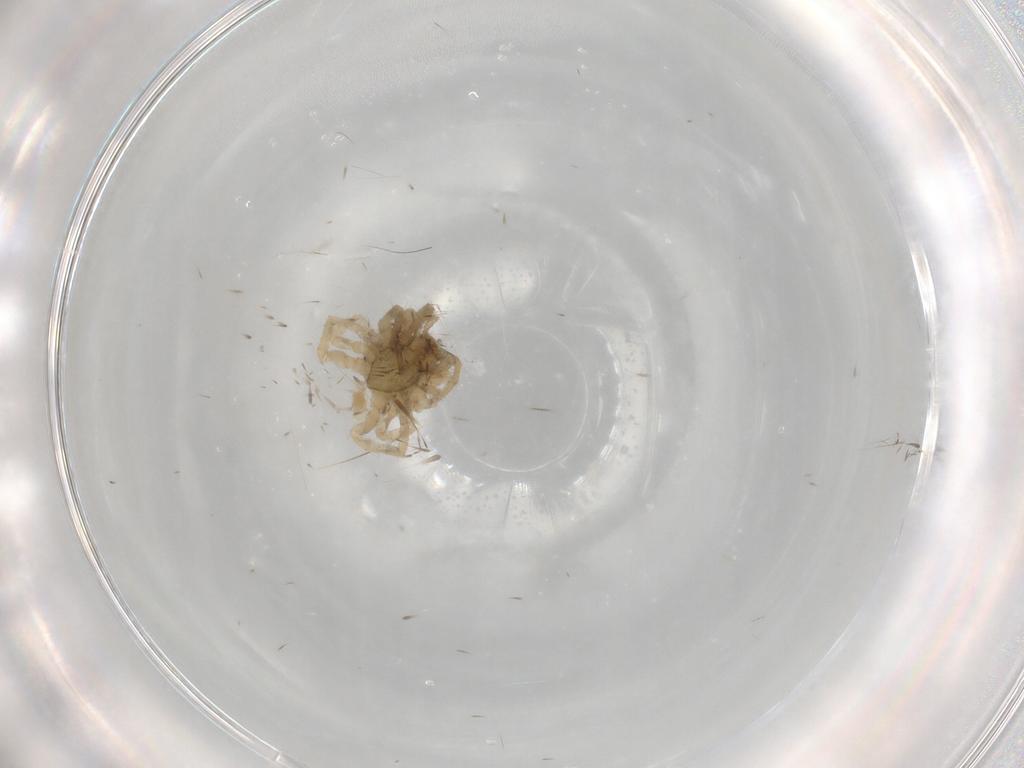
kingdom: Animalia
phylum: Arthropoda
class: Arachnida
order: Araneae
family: Gnaphosidae
